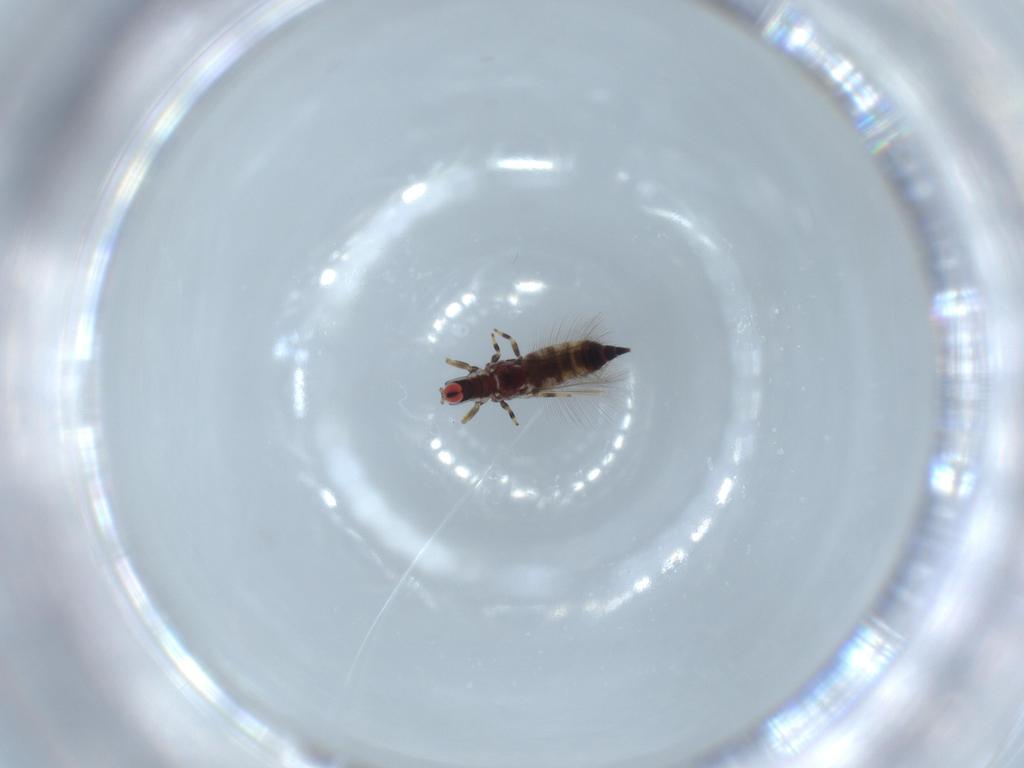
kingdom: Animalia
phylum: Arthropoda
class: Insecta
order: Thysanoptera
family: Phlaeothripidae
